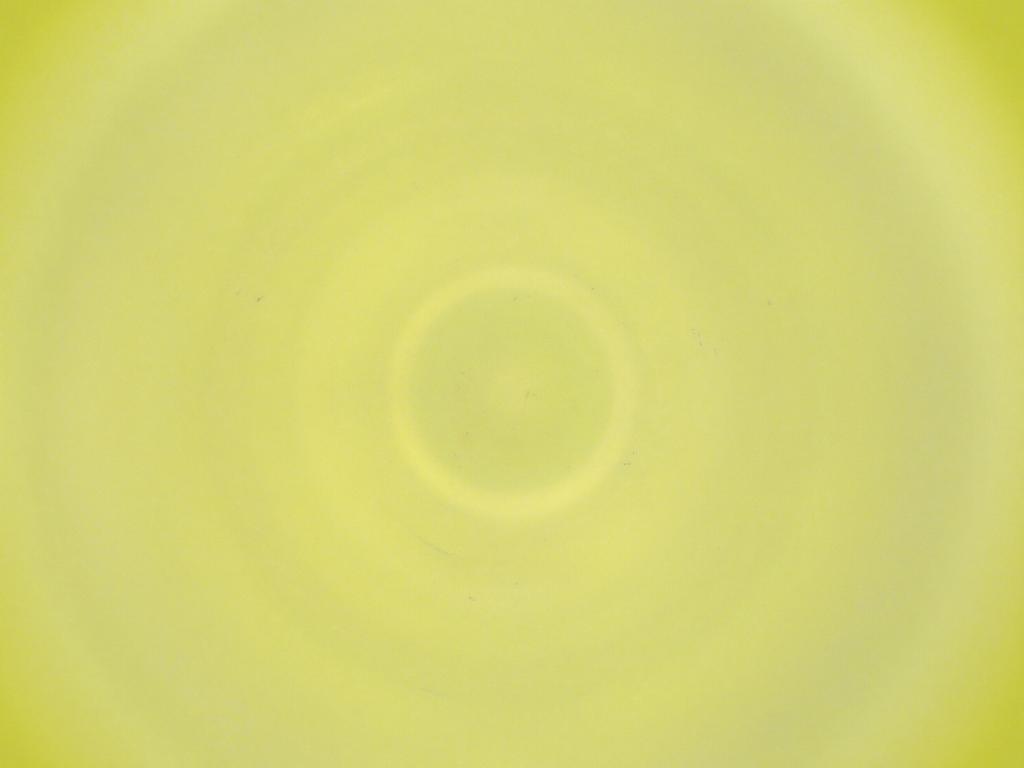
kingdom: Animalia
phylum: Arthropoda
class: Insecta
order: Diptera
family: Cecidomyiidae
